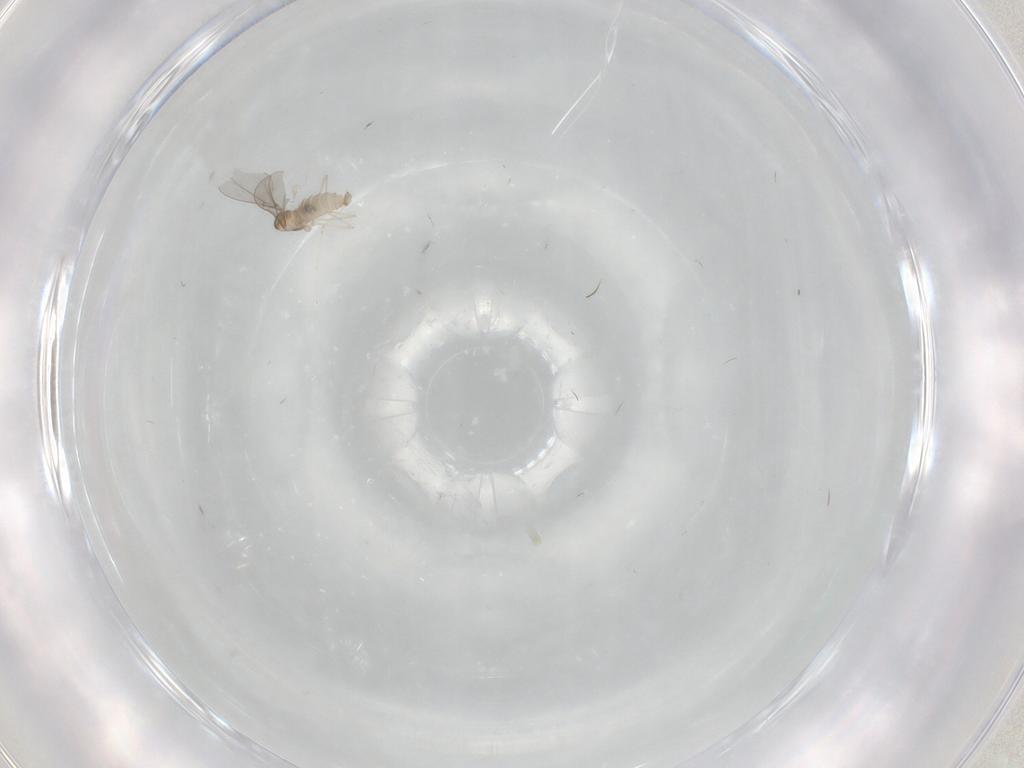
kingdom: Animalia
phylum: Arthropoda
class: Insecta
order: Diptera
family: Cecidomyiidae
